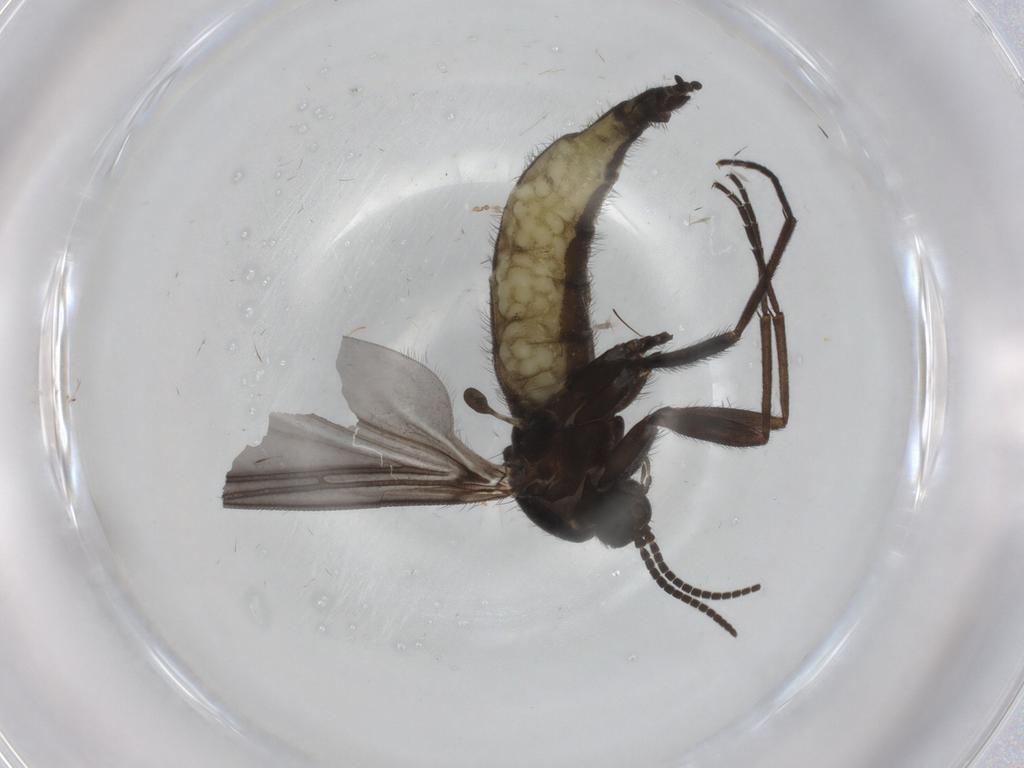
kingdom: Animalia
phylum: Arthropoda
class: Insecta
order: Diptera
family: Sciaridae
